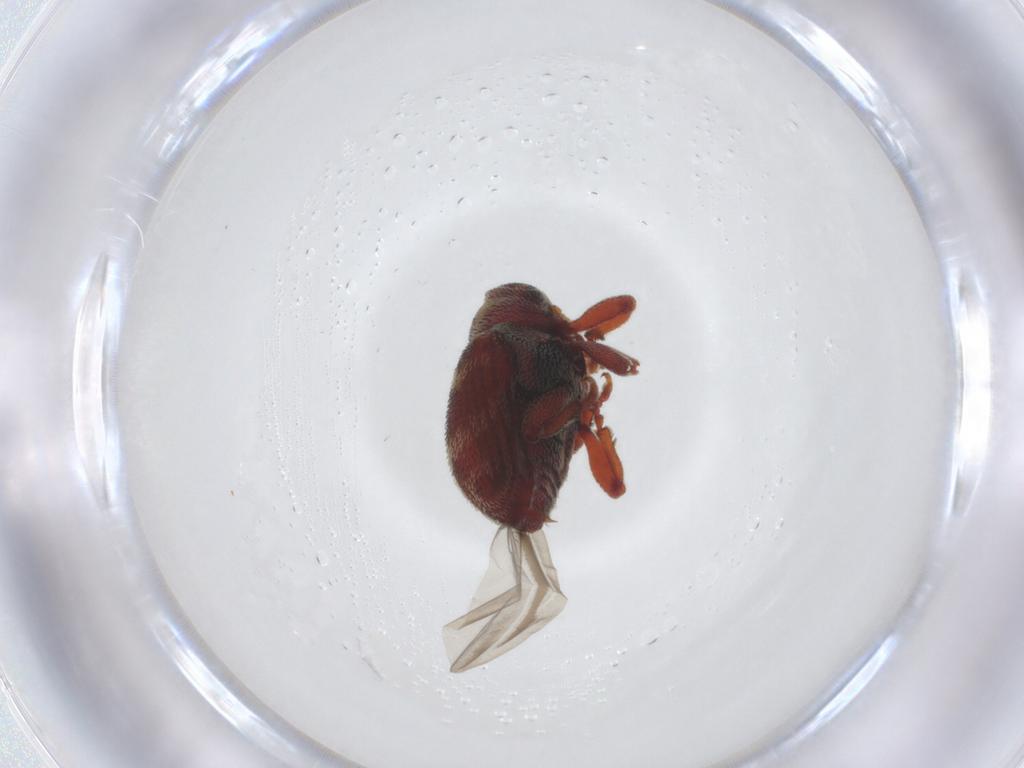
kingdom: Animalia
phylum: Arthropoda
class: Insecta
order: Coleoptera
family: Curculionidae
